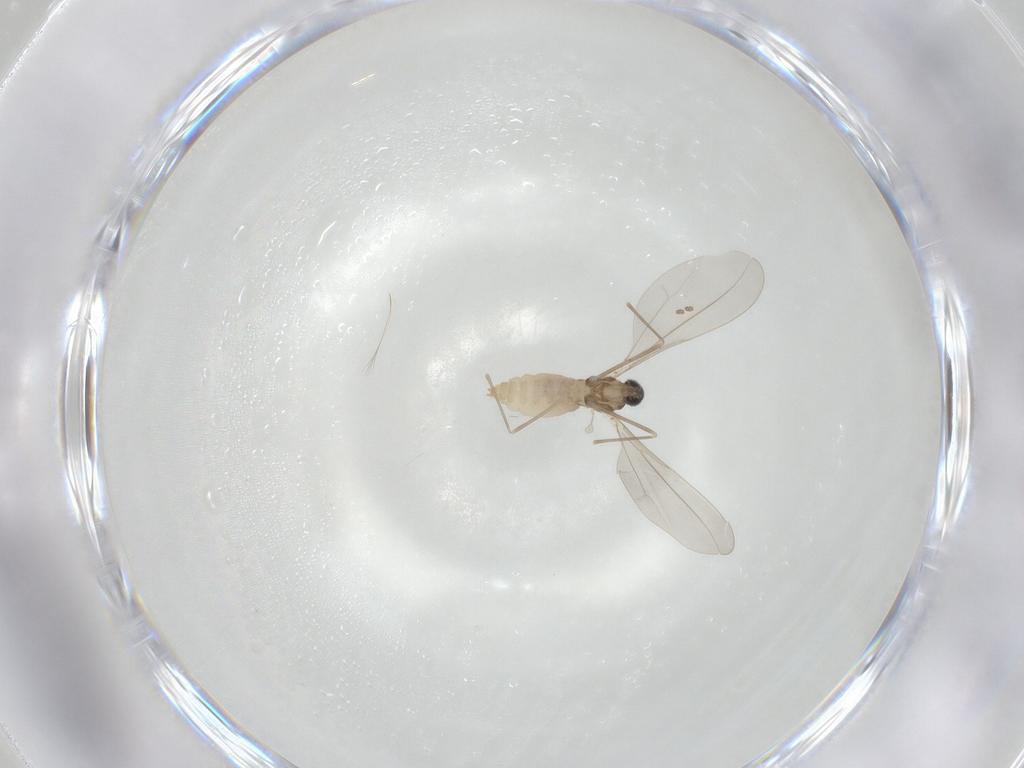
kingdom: Animalia
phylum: Arthropoda
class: Insecta
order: Diptera
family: Cecidomyiidae
